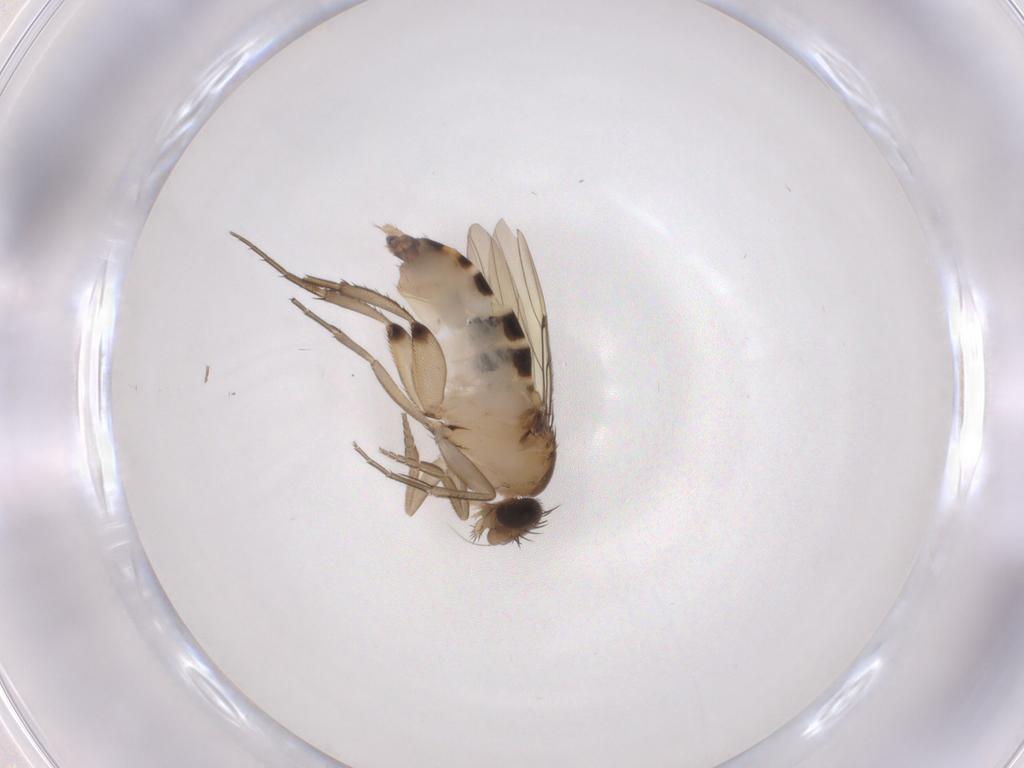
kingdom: Animalia
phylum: Arthropoda
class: Insecta
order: Diptera
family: Phoridae
